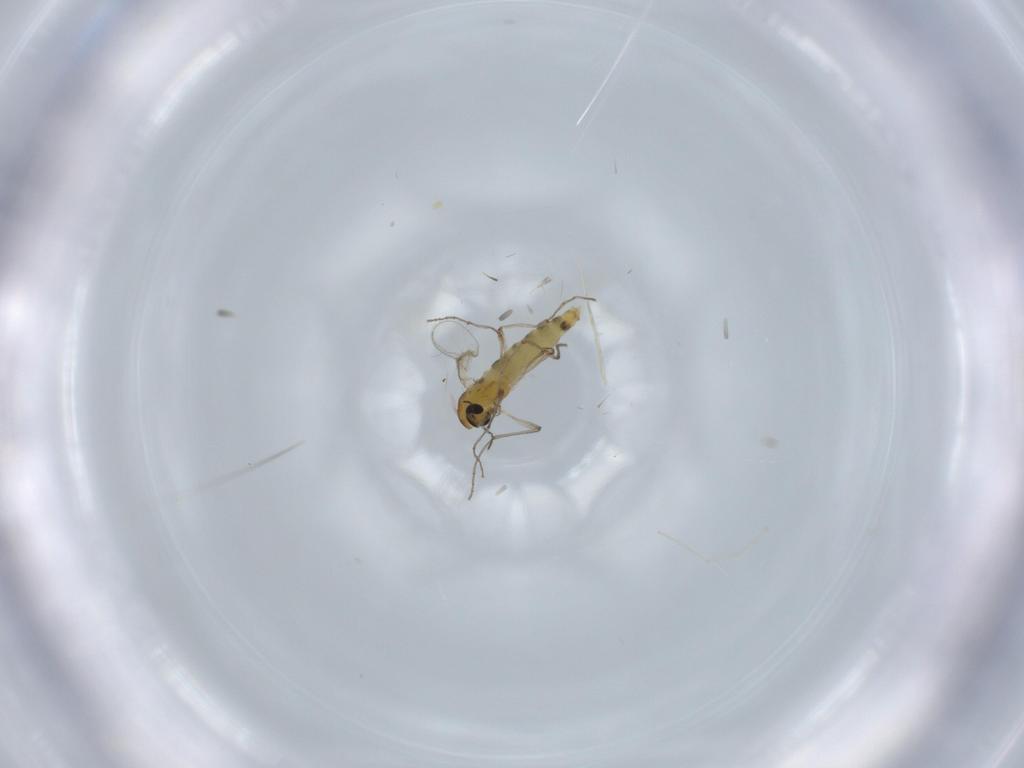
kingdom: Animalia
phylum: Arthropoda
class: Insecta
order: Diptera
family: Chironomidae
